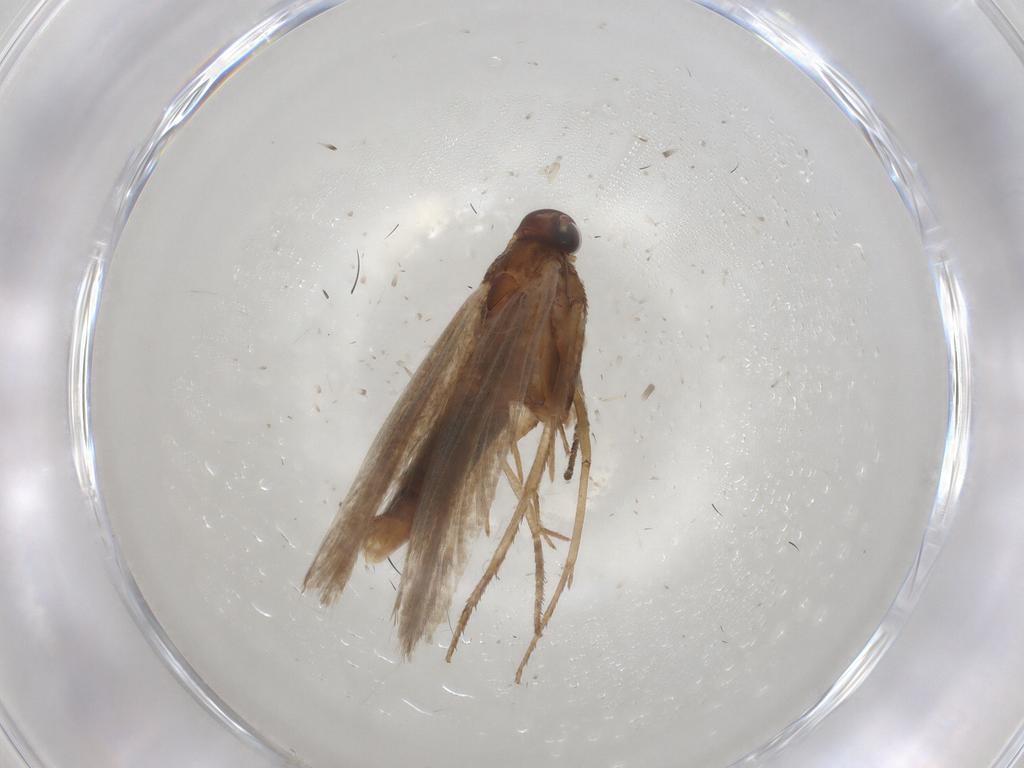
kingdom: Animalia
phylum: Arthropoda
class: Insecta
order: Lepidoptera
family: Gelechiidae
